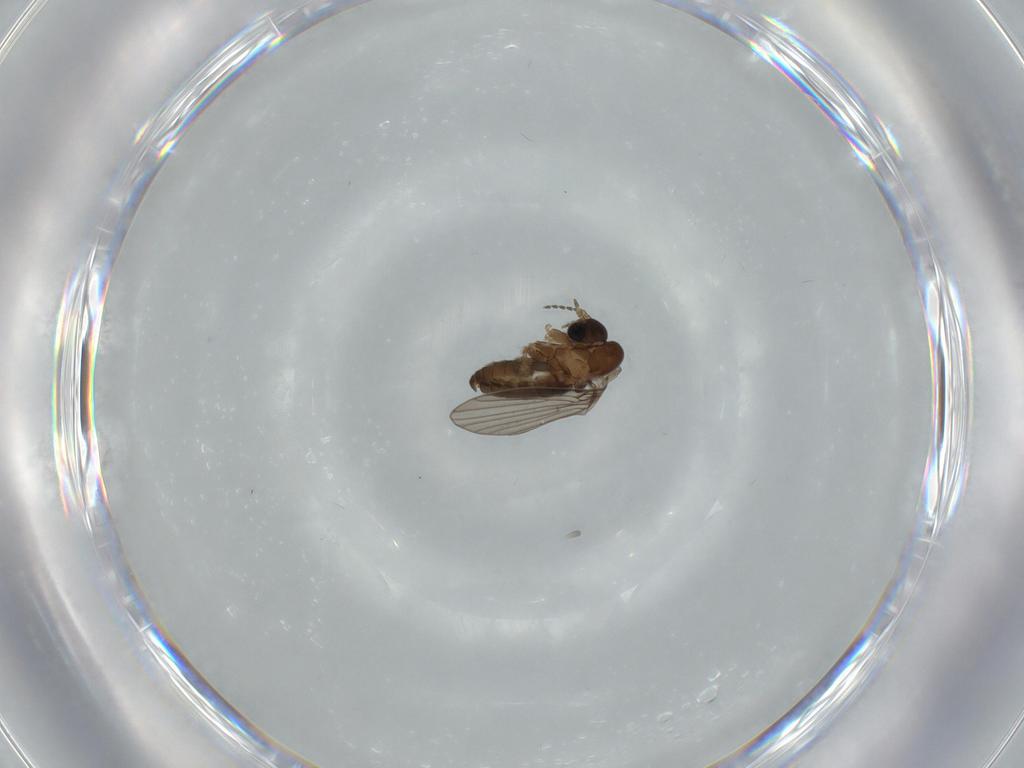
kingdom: Animalia
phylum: Arthropoda
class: Insecta
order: Diptera
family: Psychodidae
